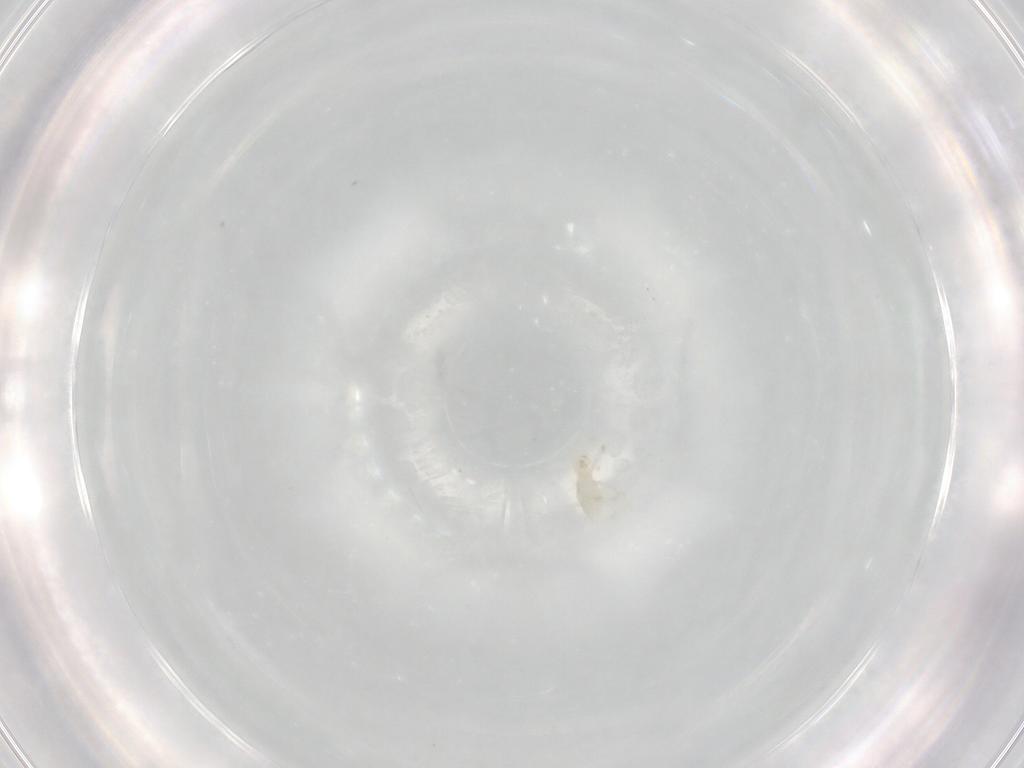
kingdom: Animalia
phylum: Arthropoda
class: Arachnida
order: Trombidiformes
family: Erythraeidae
